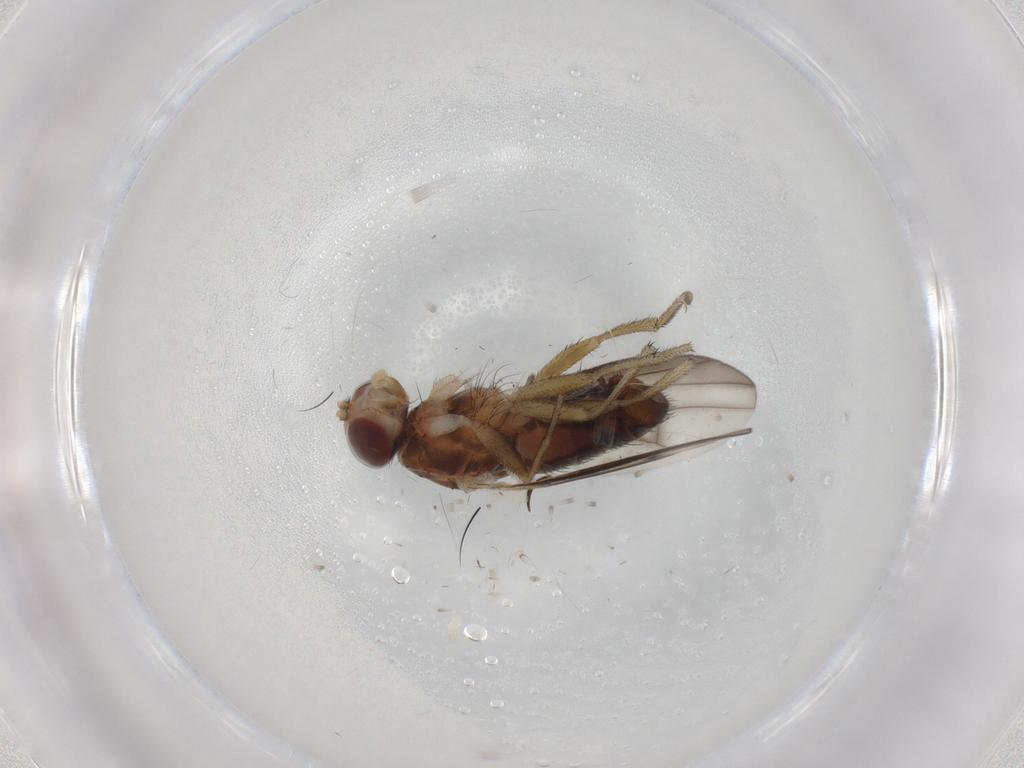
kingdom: Animalia
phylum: Arthropoda
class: Insecta
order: Diptera
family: Heleomyzidae
